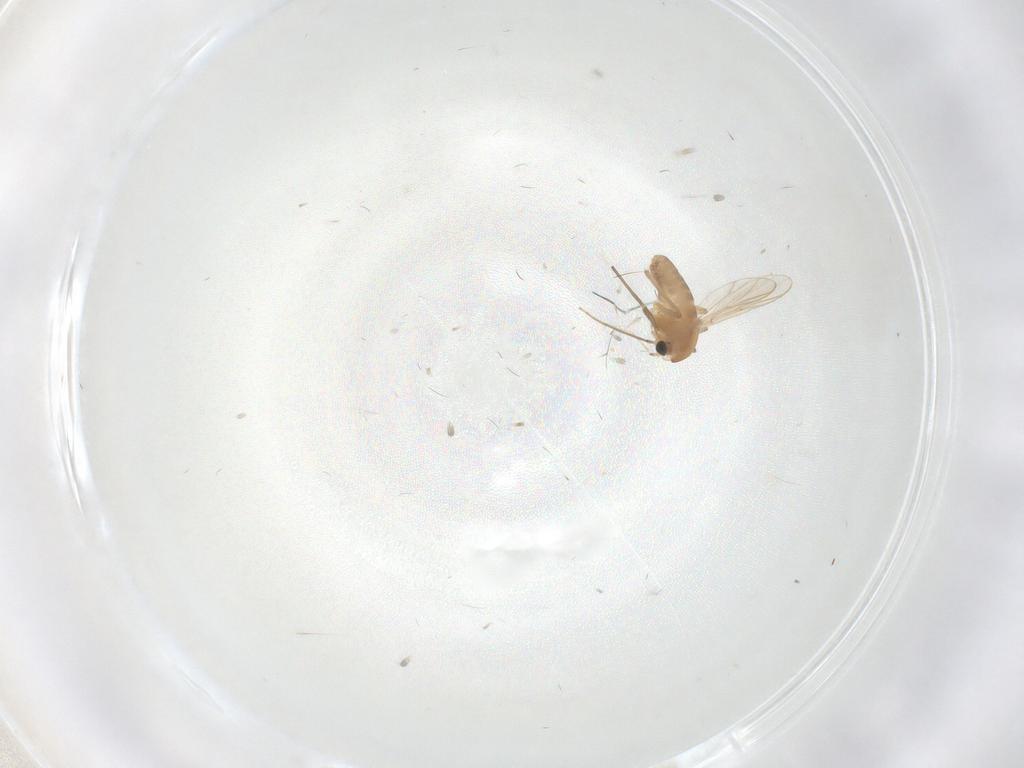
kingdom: Animalia
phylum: Arthropoda
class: Insecta
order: Diptera
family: Chironomidae
